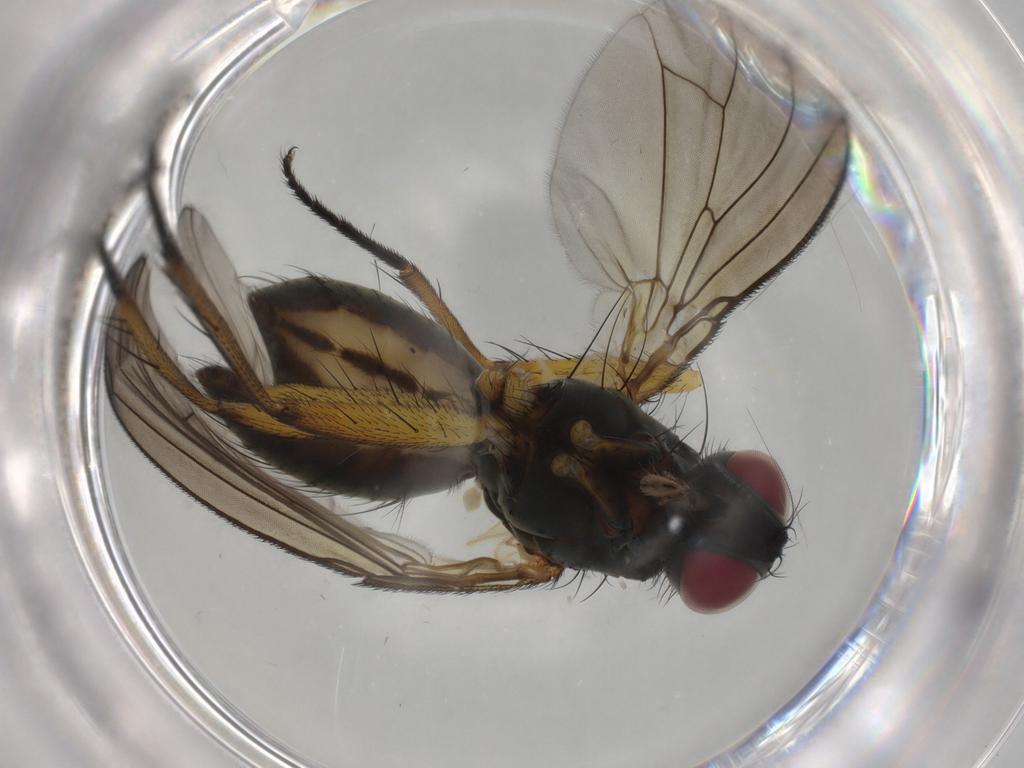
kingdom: Animalia
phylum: Arthropoda
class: Insecta
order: Diptera
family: Muscidae
